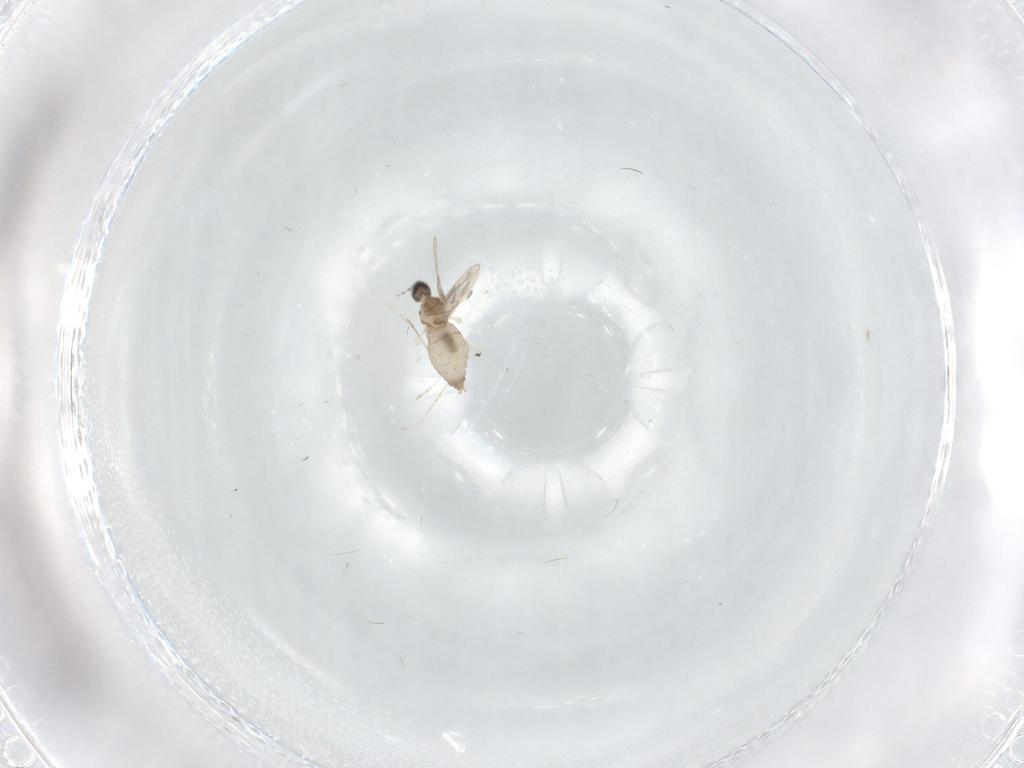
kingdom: Animalia
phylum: Arthropoda
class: Insecta
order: Diptera
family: Cecidomyiidae
